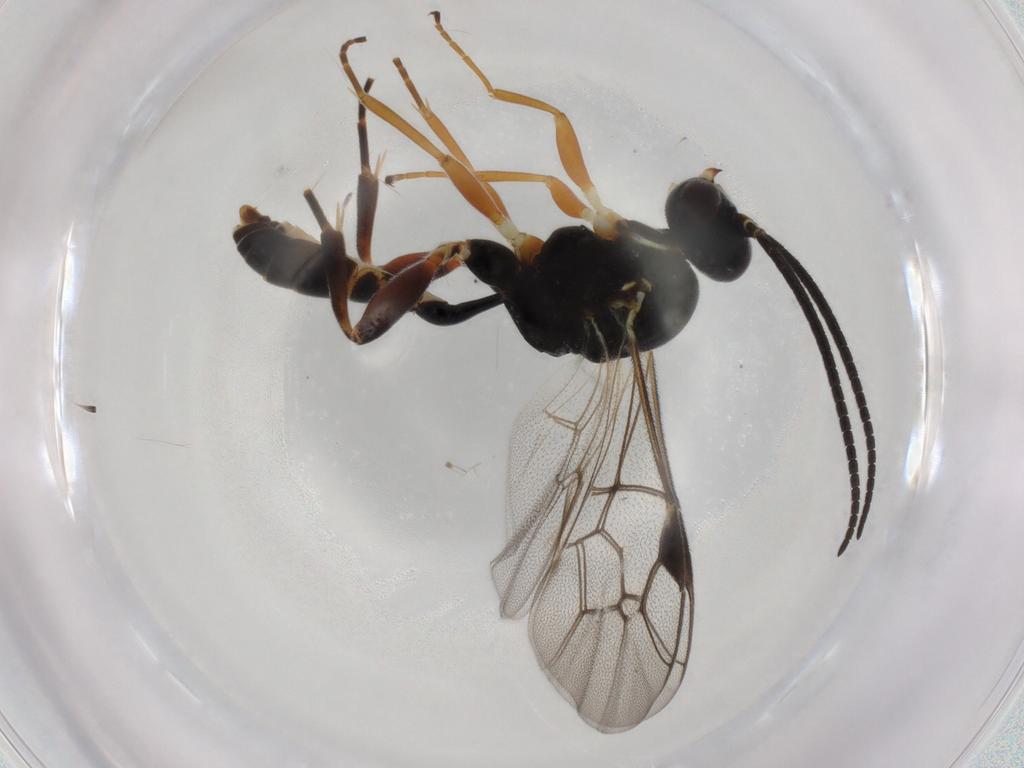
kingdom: Animalia
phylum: Arthropoda
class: Insecta
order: Hymenoptera
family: Ichneumonidae
